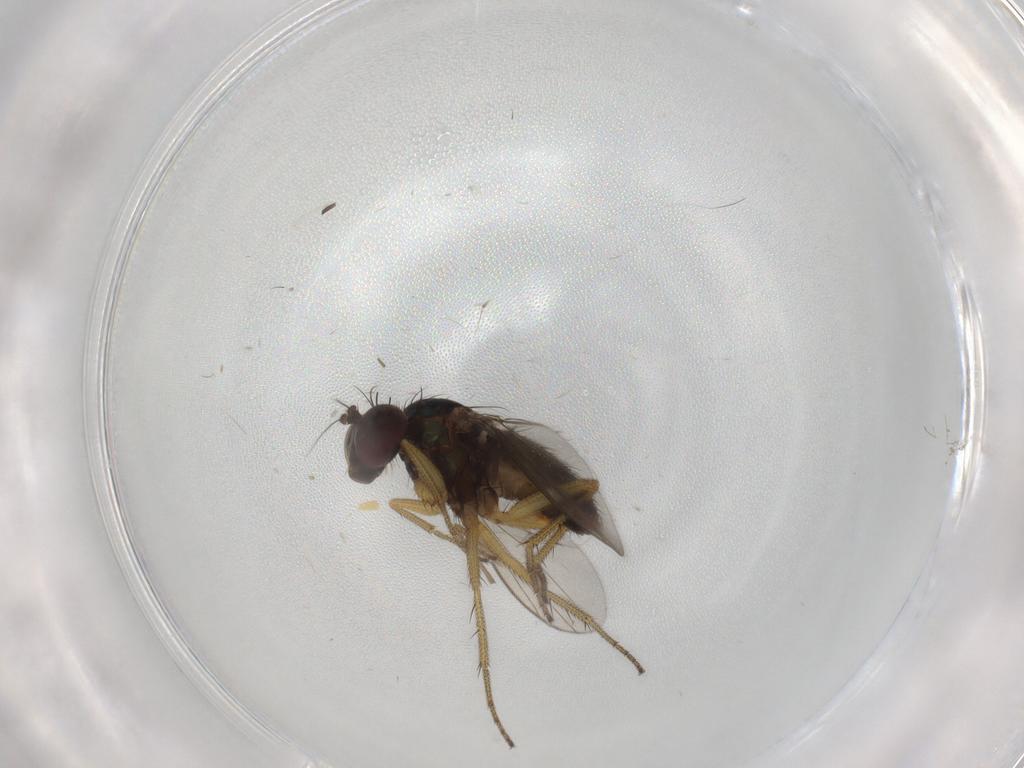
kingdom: Animalia
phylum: Arthropoda
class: Insecta
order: Diptera
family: Dolichopodidae
